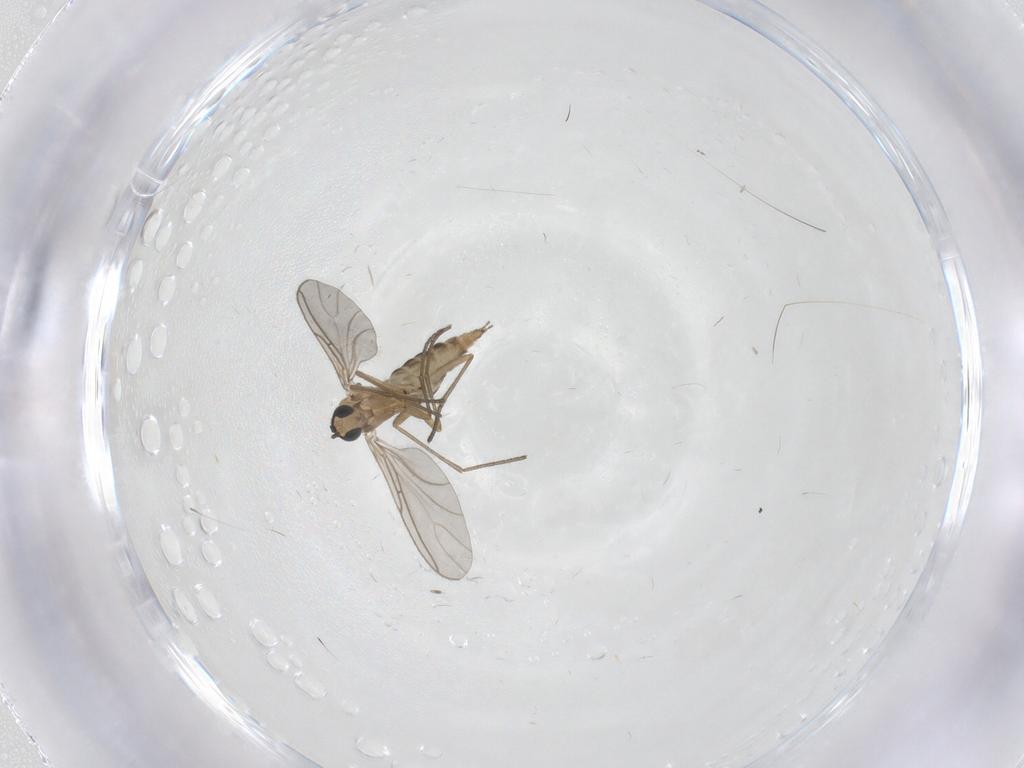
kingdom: Animalia
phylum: Arthropoda
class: Insecta
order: Diptera
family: Sciaridae
